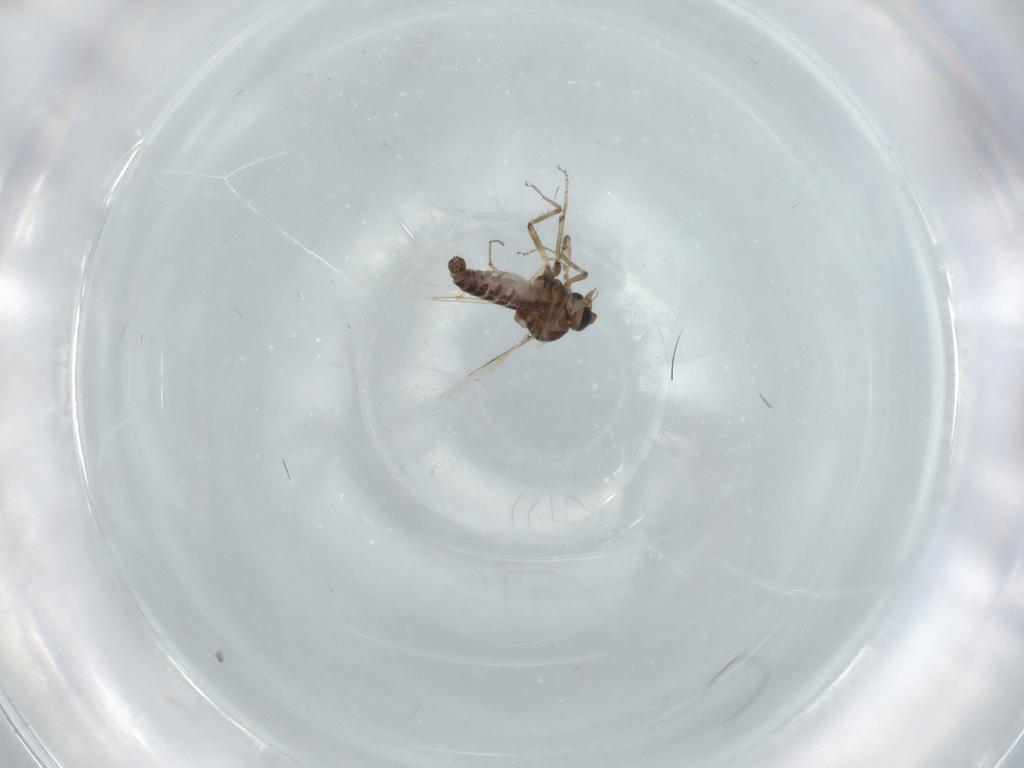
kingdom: Animalia
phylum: Arthropoda
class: Insecta
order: Diptera
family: Ceratopogonidae
